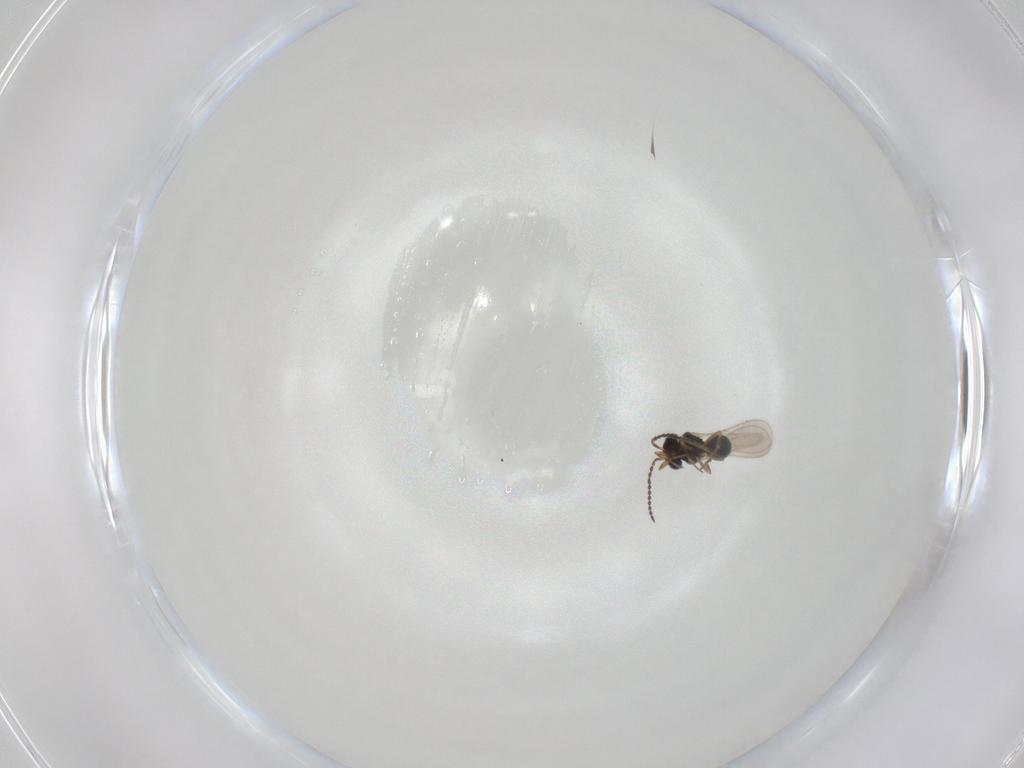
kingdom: Animalia
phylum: Arthropoda
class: Insecta
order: Hymenoptera
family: Scelionidae
